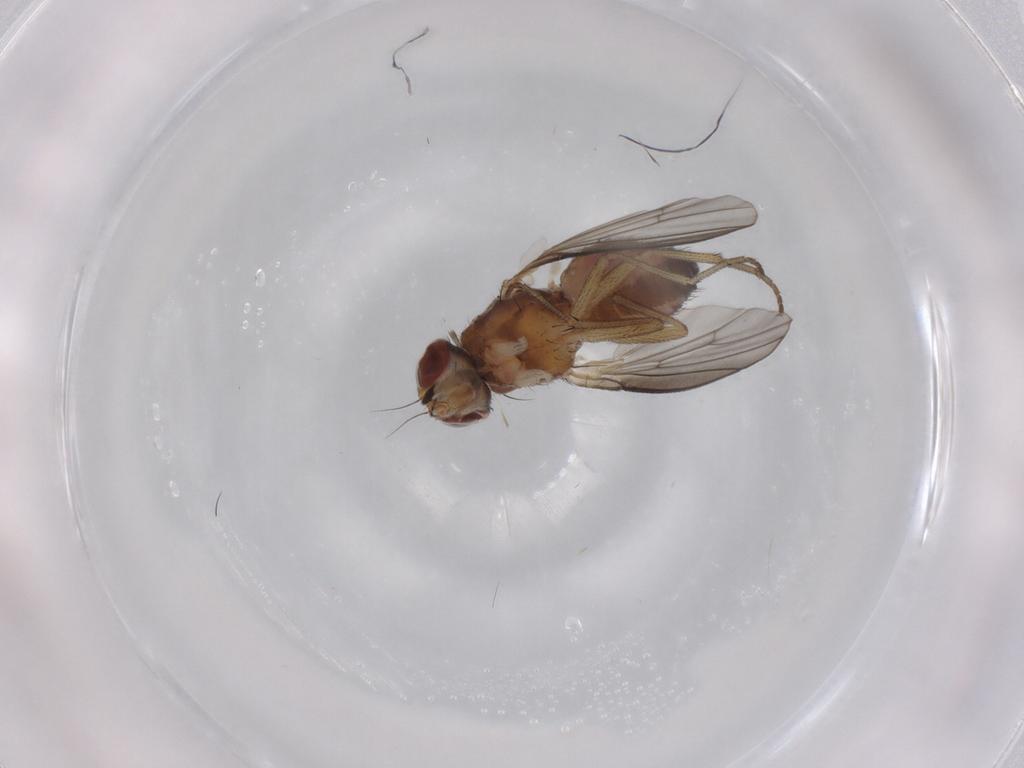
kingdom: Animalia
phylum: Arthropoda
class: Insecta
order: Diptera
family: Heleomyzidae
